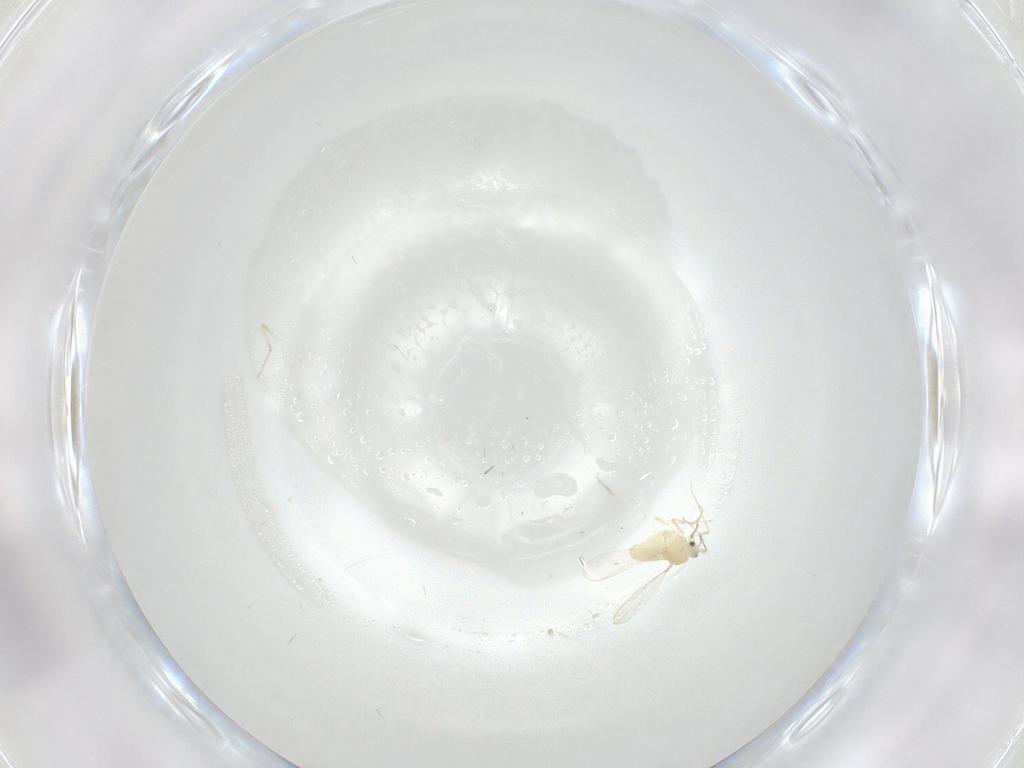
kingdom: Animalia
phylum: Arthropoda
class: Insecta
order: Diptera
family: Chironomidae
